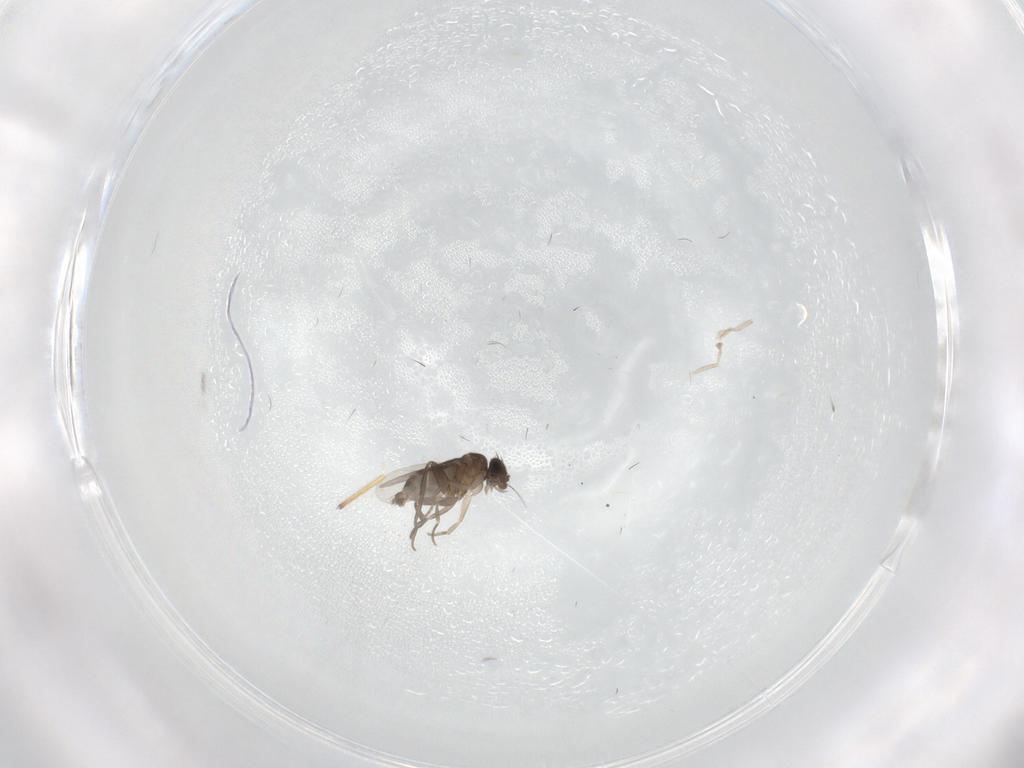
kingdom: Animalia
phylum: Arthropoda
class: Insecta
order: Diptera
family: Phoridae
